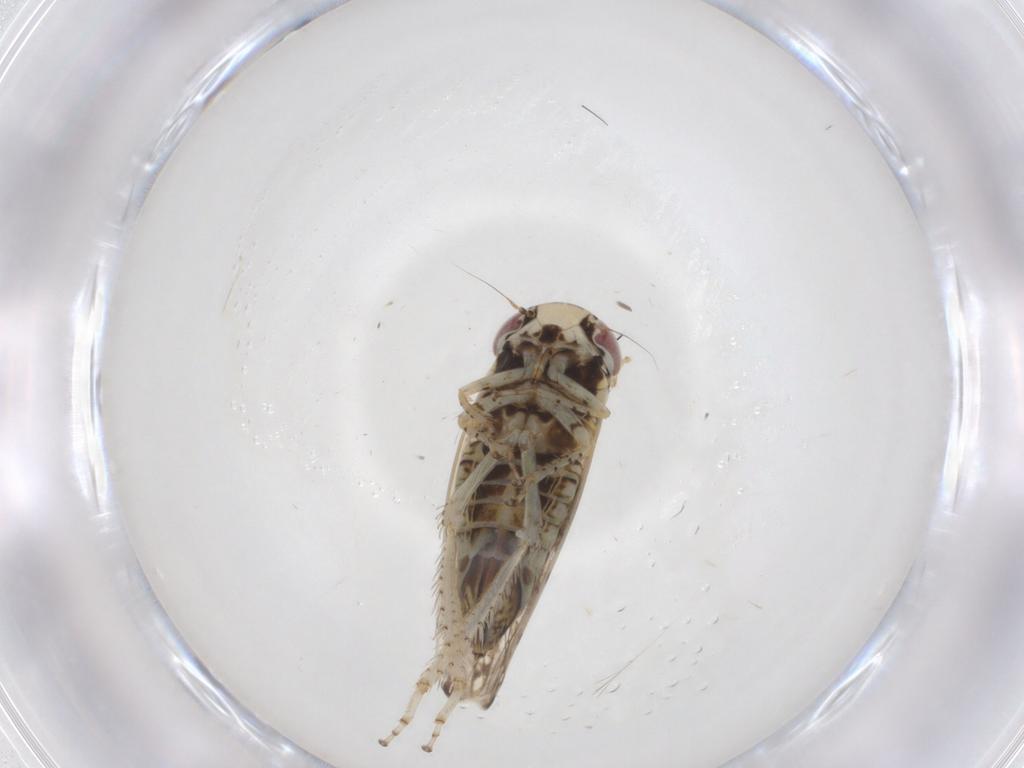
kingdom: Animalia
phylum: Arthropoda
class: Insecta
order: Hemiptera
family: Cicadellidae
